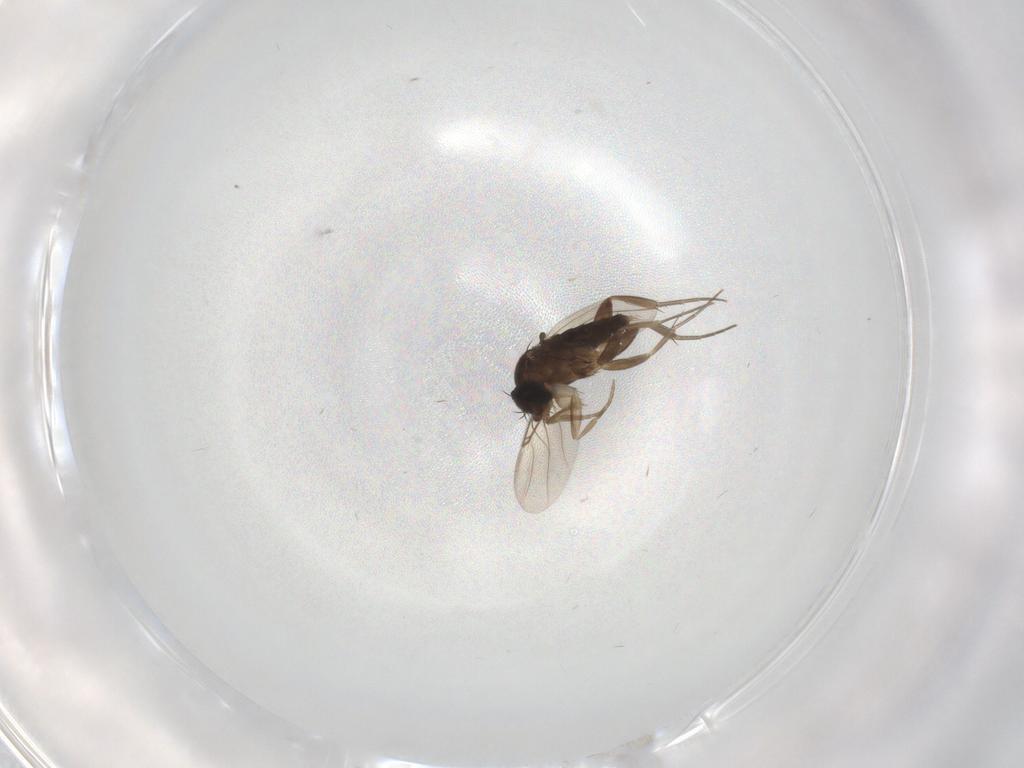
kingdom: Animalia
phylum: Arthropoda
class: Insecta
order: Diptera
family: Phoridae
